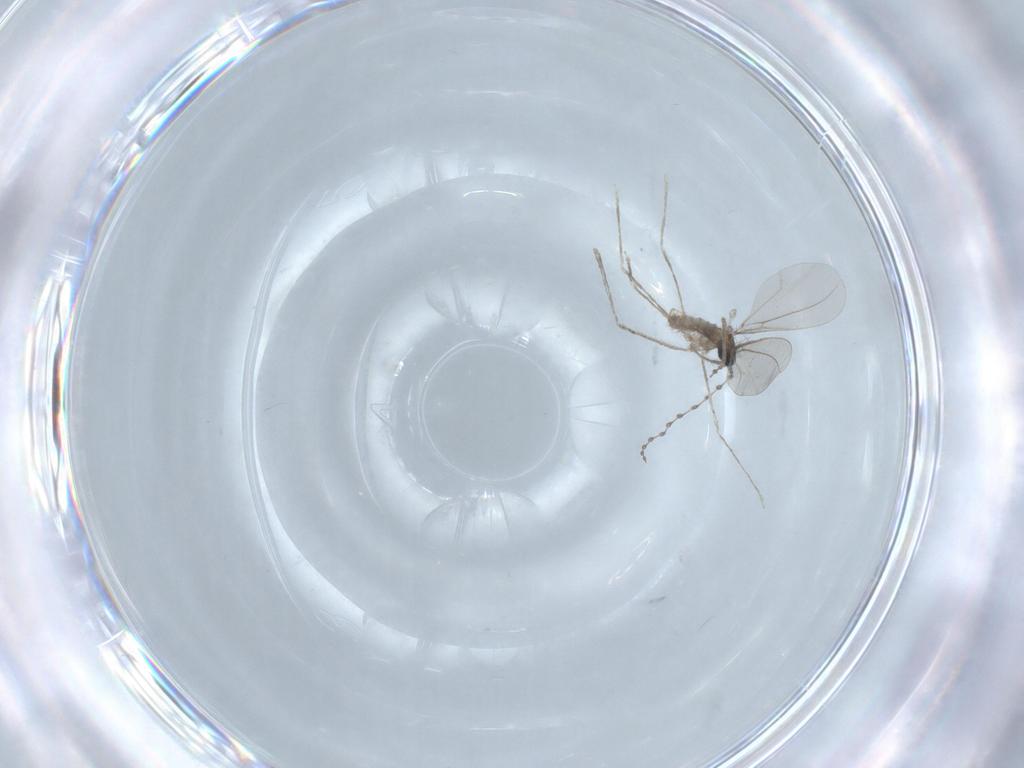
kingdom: Animalia
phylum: Arthropoda
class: Insecta
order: Diptera
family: Cecidomyiidae
